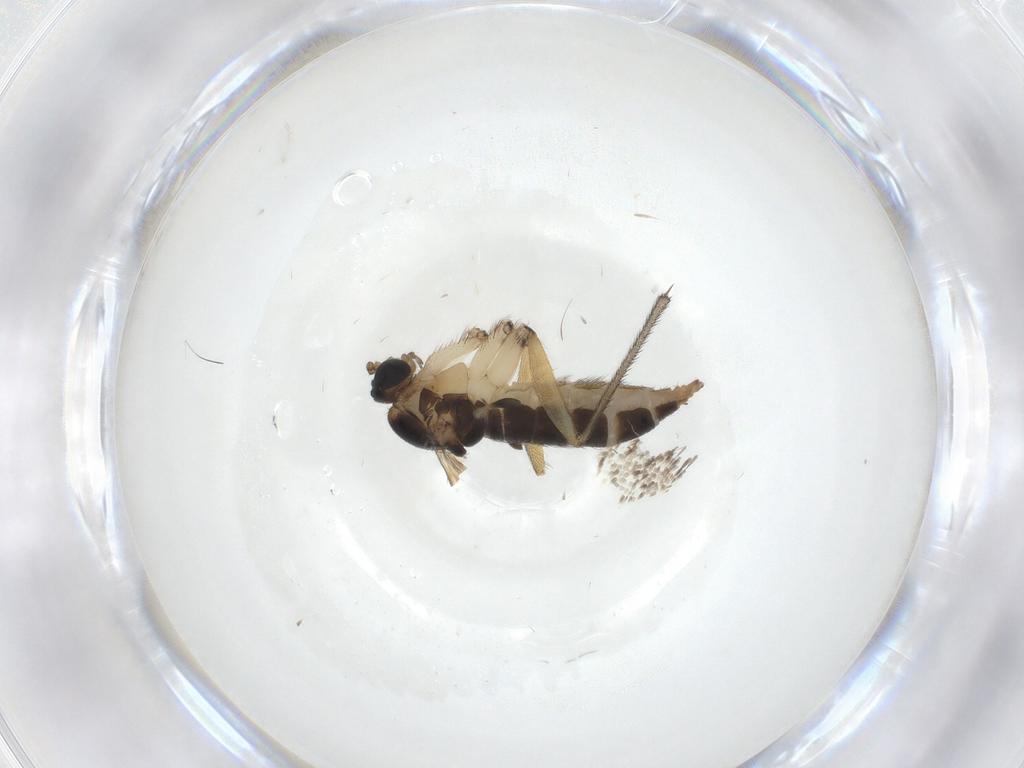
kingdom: Animalia
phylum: Arthropoda
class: Insecta
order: Diptera
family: Sciaridae
